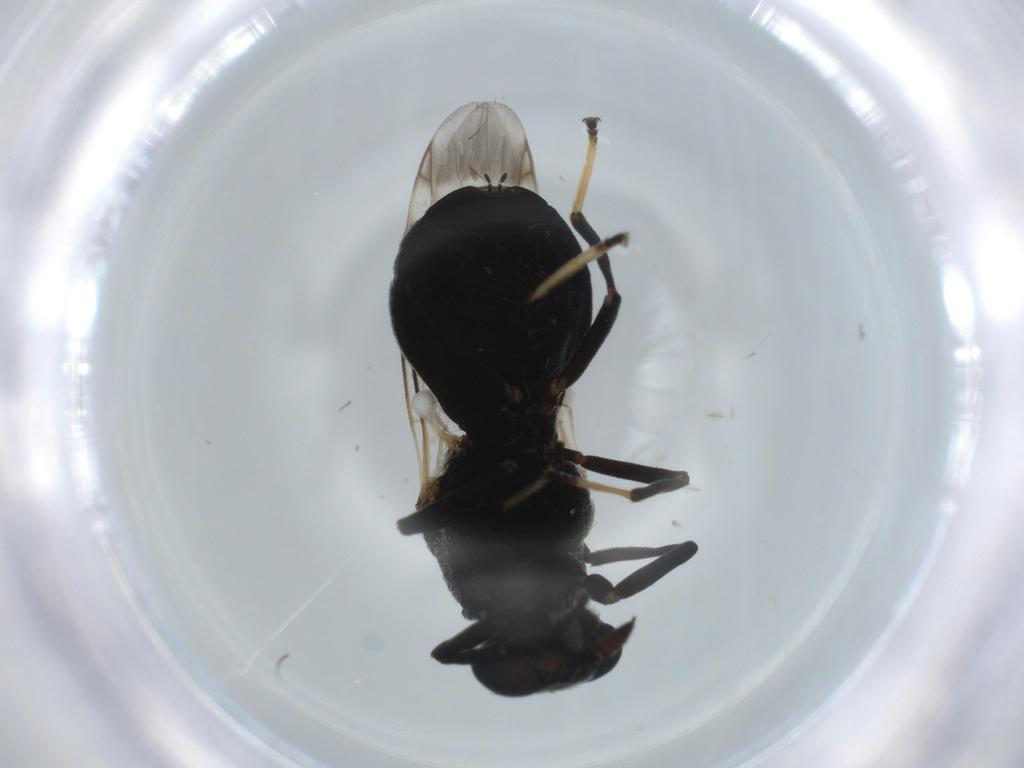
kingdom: Animalia
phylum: Arthropoda
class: Insecta
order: Diptera
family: Stratiomyidae
